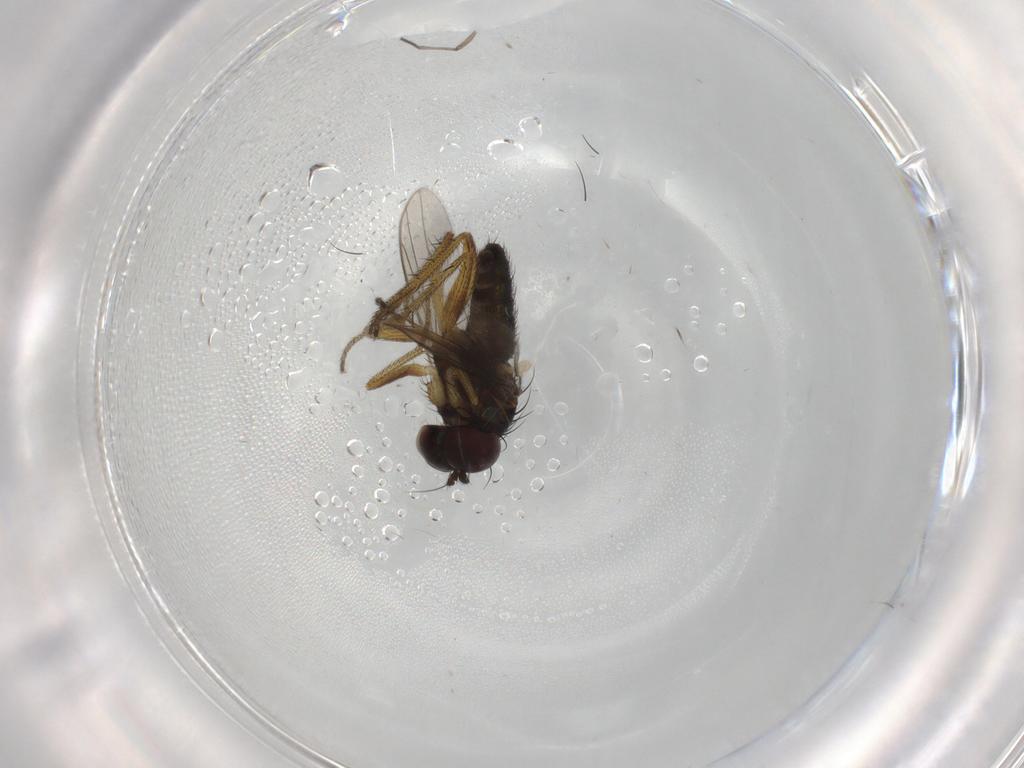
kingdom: Animalia
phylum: Arthropoda
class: Insecta
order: Diptera
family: Sciaridae
